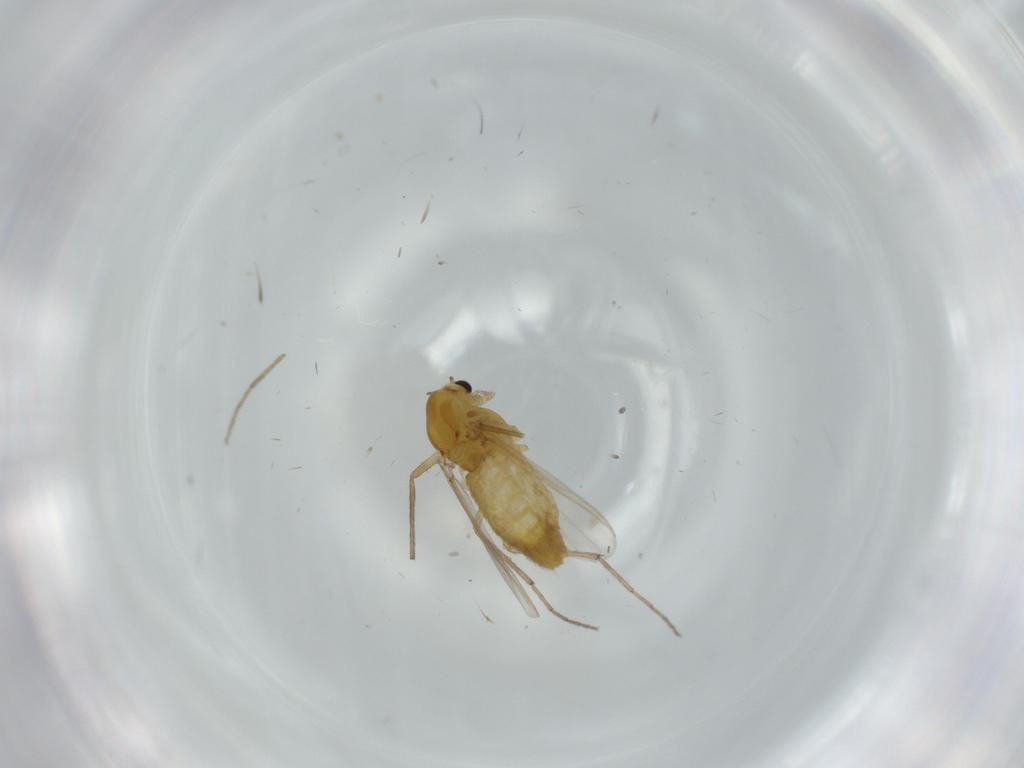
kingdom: Animalia
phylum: Arthropoda
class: Insecta
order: Diptera
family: Chironomidae
